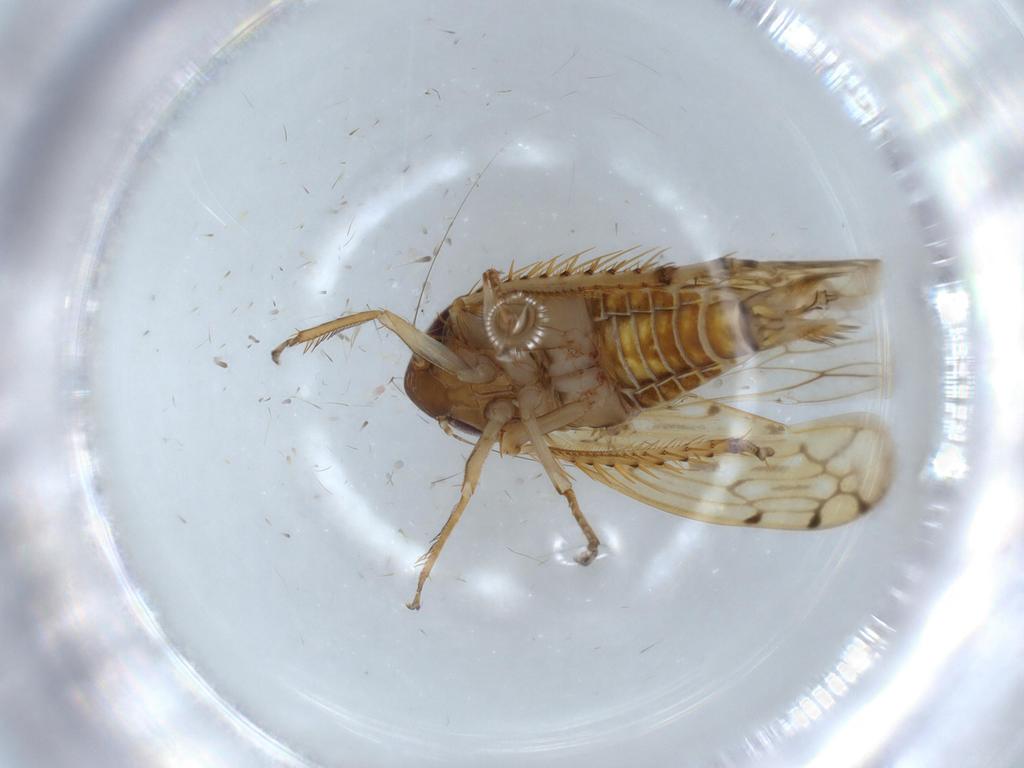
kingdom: Animalia
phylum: Arthropoda
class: Insecta
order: Hemiptera
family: Cicadellidae
